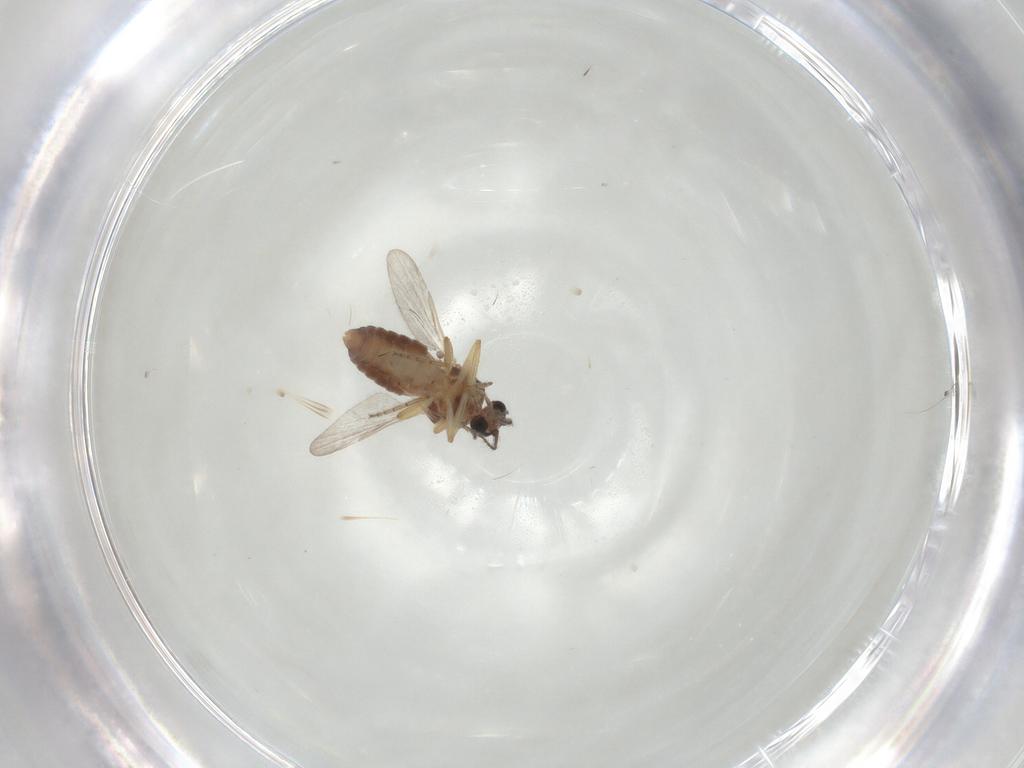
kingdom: Animalia
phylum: Arthropoda
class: Insecta
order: Diptera
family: Ceratopogonidae
